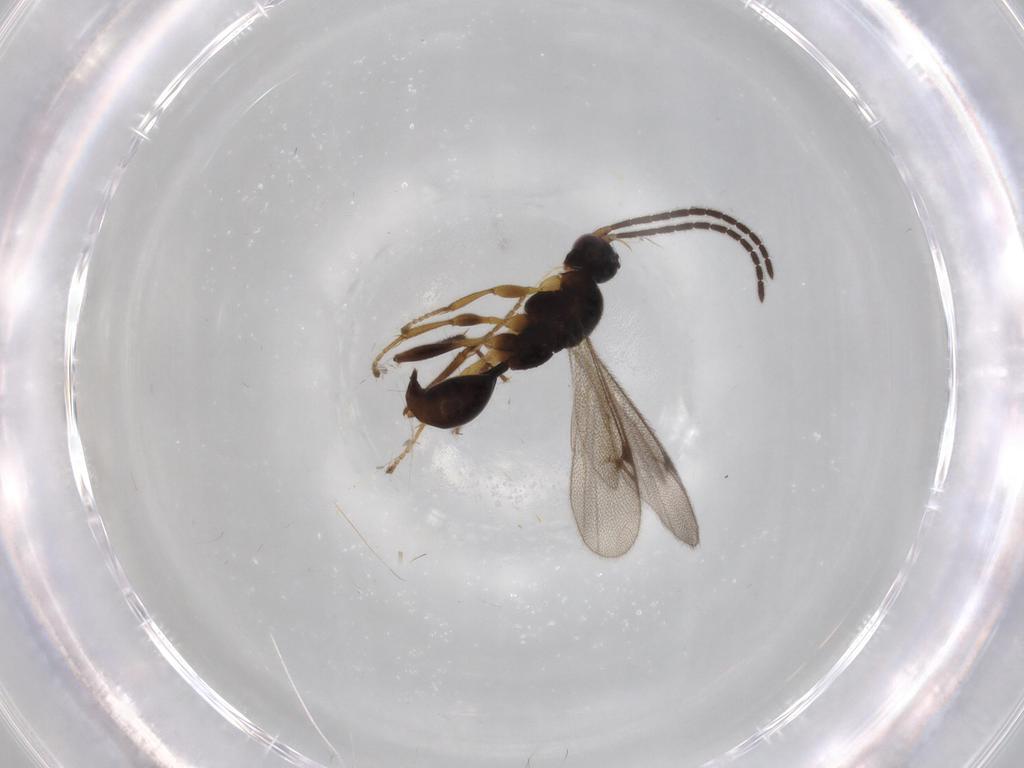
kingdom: Animalia
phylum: Arthropoda
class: Insecta
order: Hymenoptera
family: Proctotrupidae
